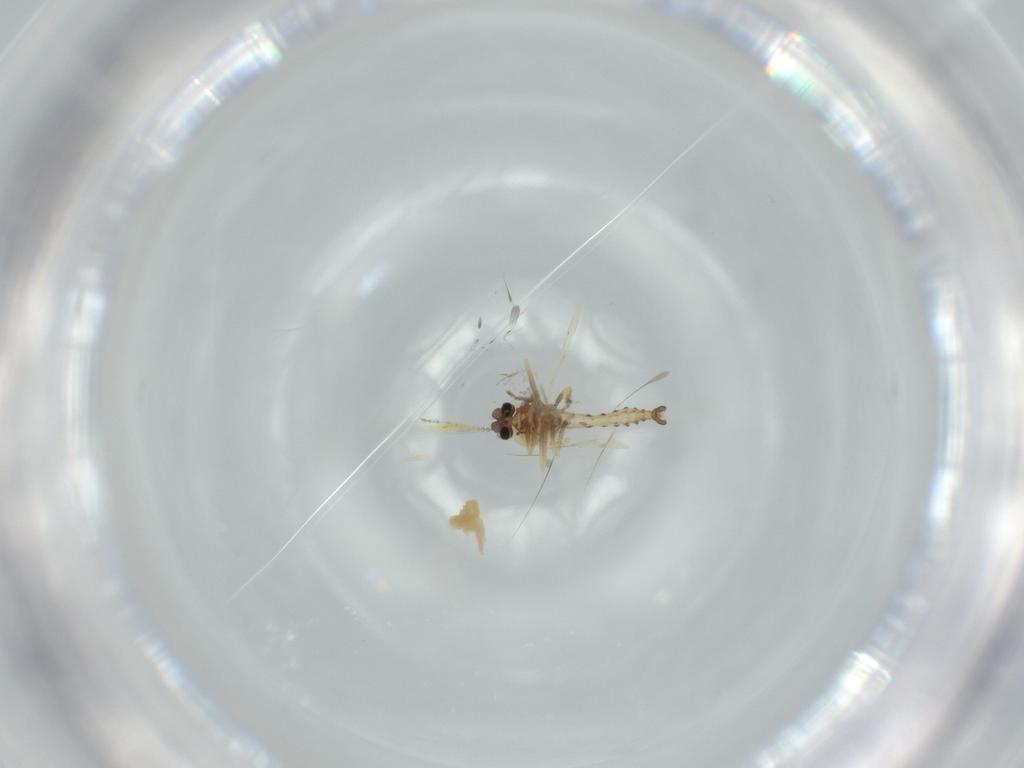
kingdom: Animalia
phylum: Arthropoda
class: Insecta
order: Diptera
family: Ceratopogonidae
